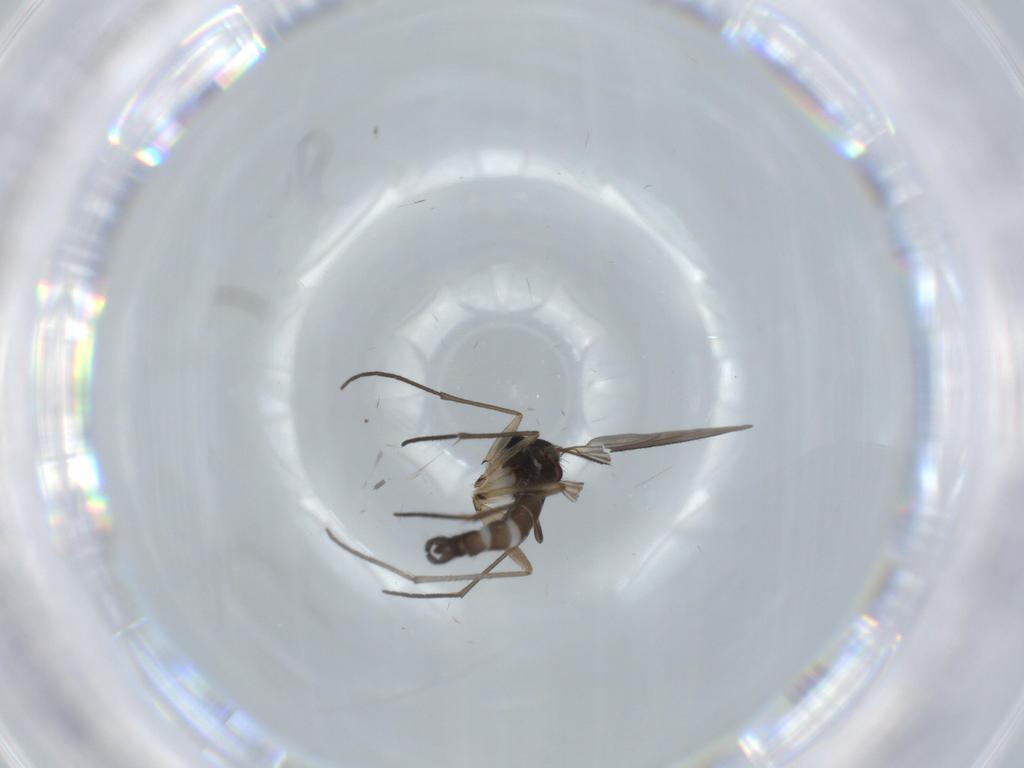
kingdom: Animalia
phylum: Arthropoda
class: Insecta
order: Diptera
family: Sciaridae
